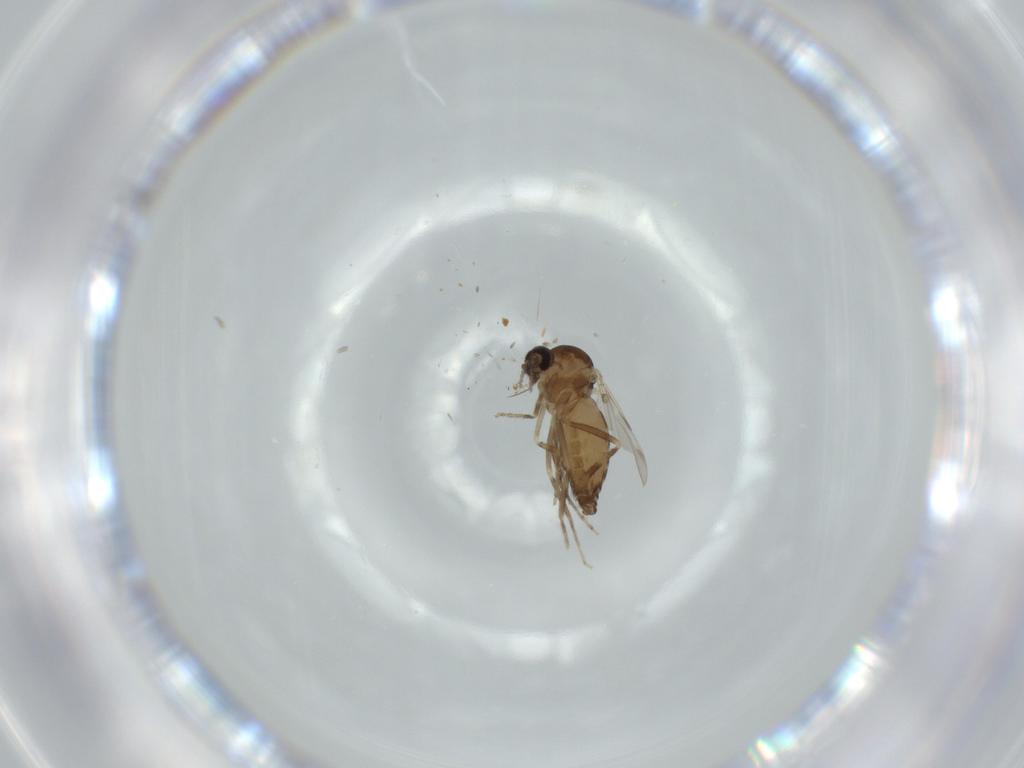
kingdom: Animalia
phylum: Arthropoda
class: Insecta
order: Diptera
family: Ceratopogonidae
